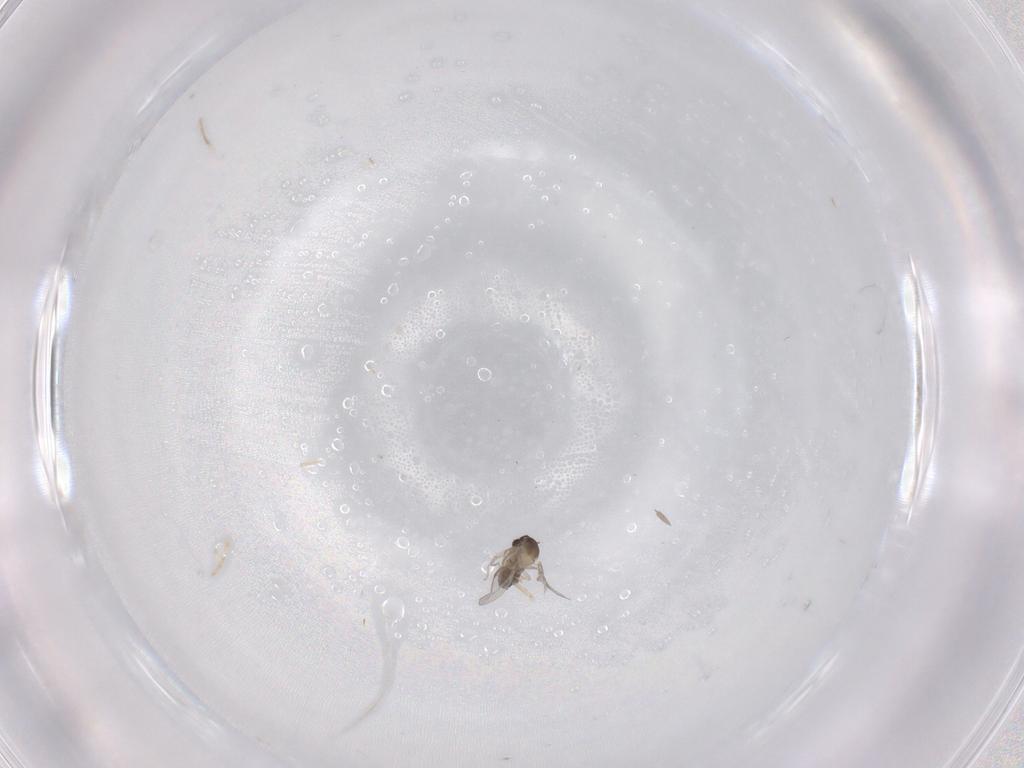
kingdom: Animalia
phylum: Arthropoda
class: Insecta
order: Diptera
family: Cecidomyiidae
